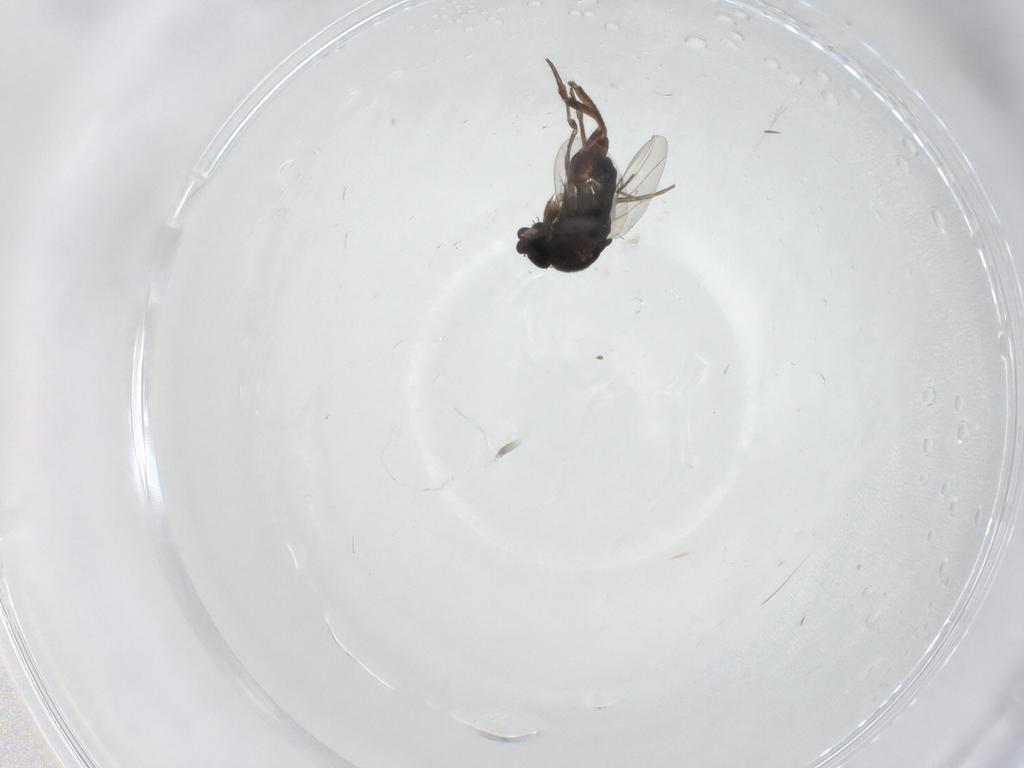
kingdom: Animalia
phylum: Arthropoda
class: Insecta
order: Diptera
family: Phoridae
